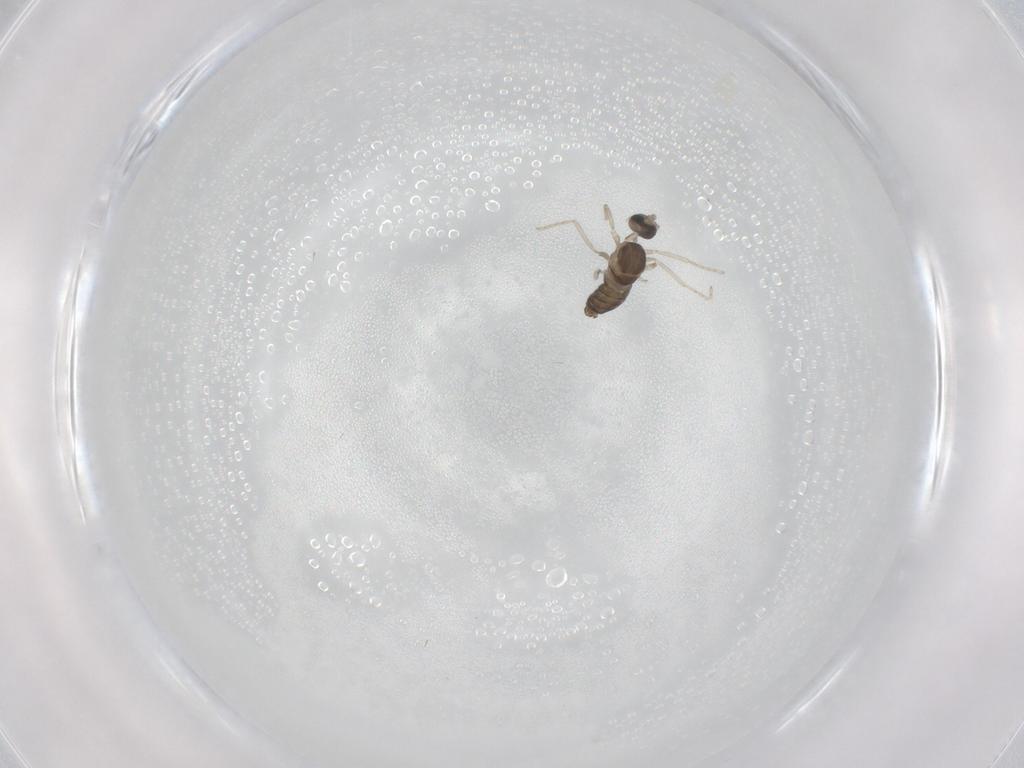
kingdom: Animalia
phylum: Arthropoda
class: Insecta
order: Diptera
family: Cecidomyiidae
